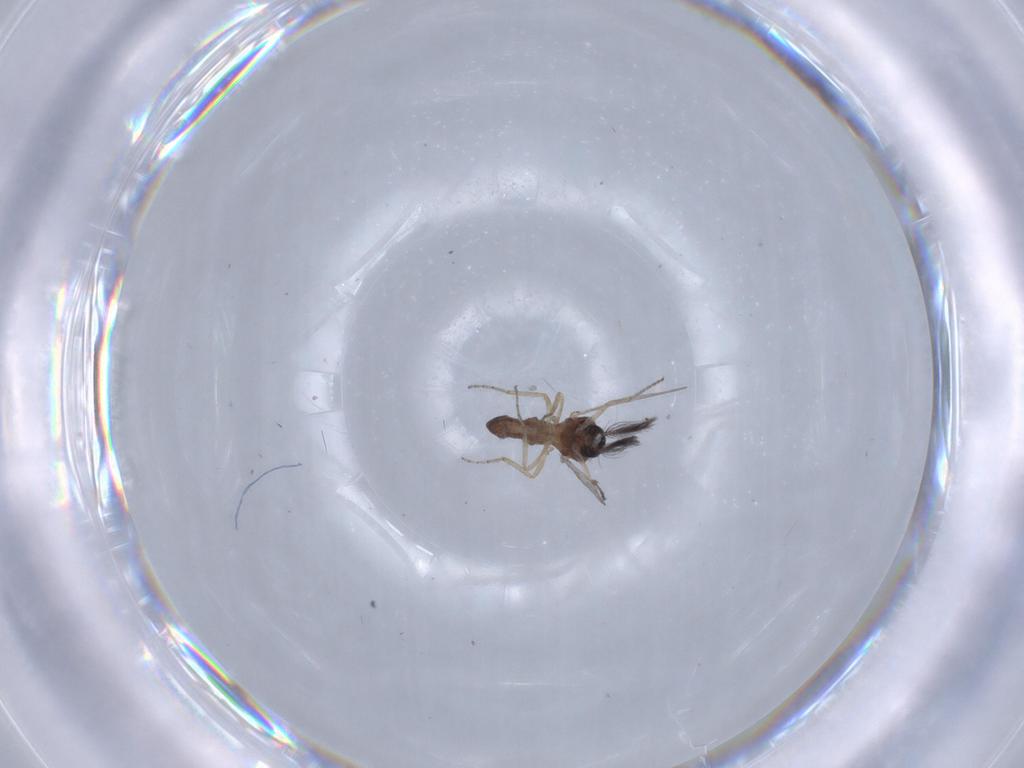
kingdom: Animalia
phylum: Arthropoda
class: Insecta
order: Diptera
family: Ceratopogonidae
